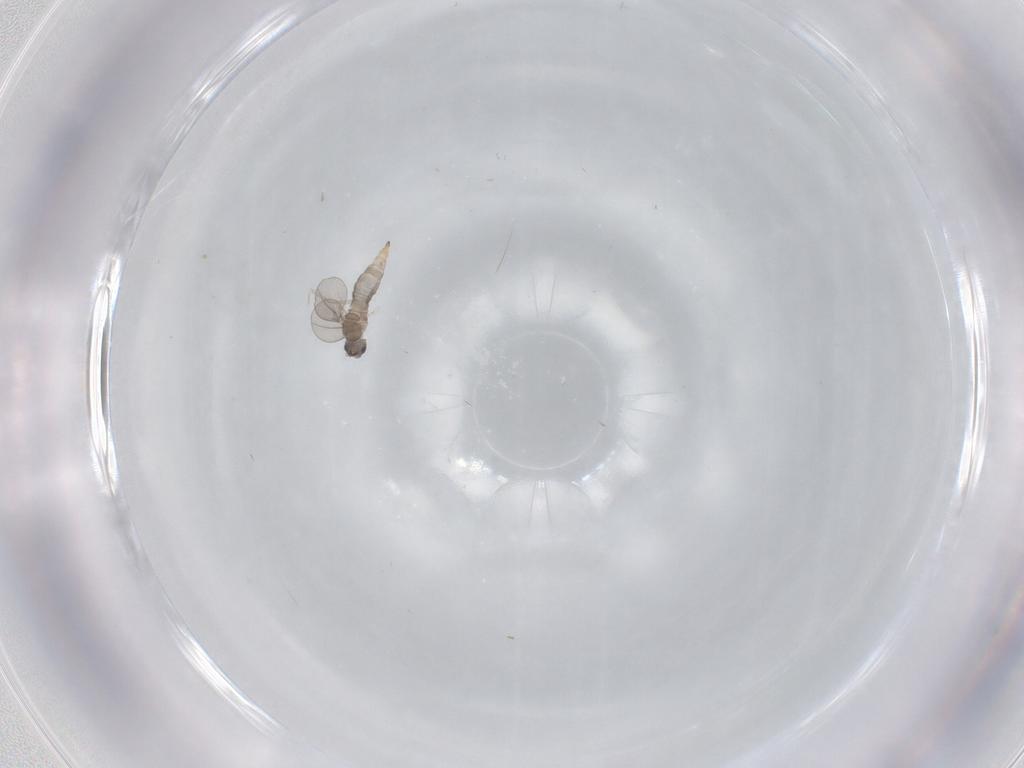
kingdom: Animalia
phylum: Arthropoda
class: Insecta
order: Diptera
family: Cecidomyiidae
